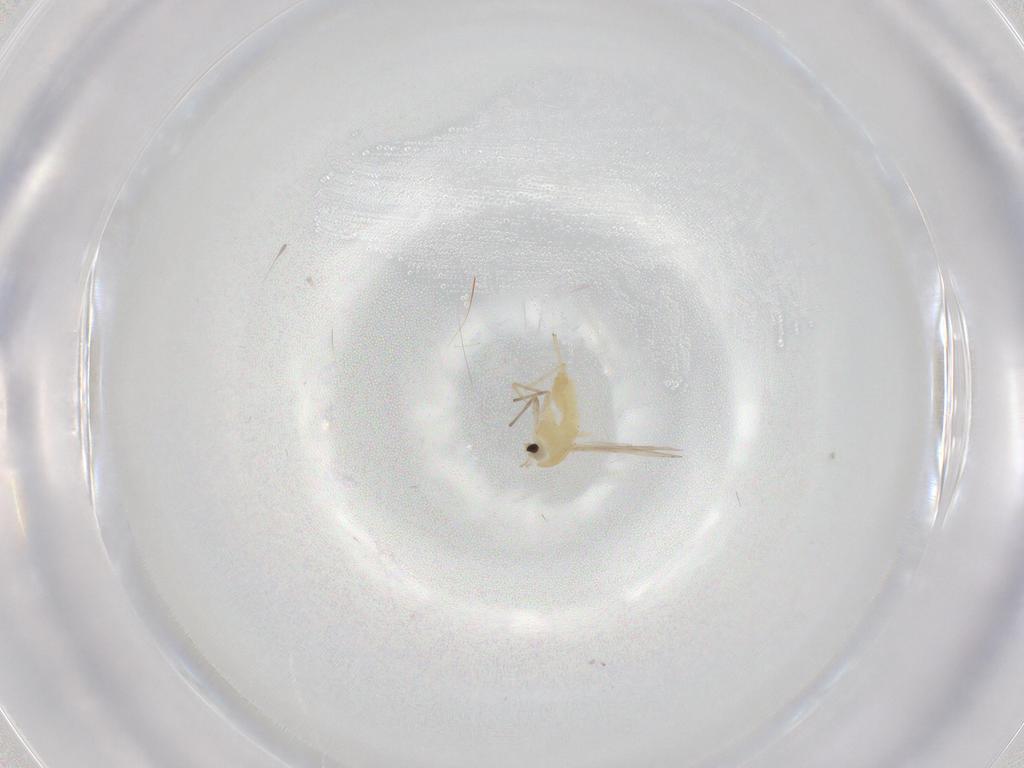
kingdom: Animalia
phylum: Arthropoda
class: Insecta
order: Diptera
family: Chironomidae
